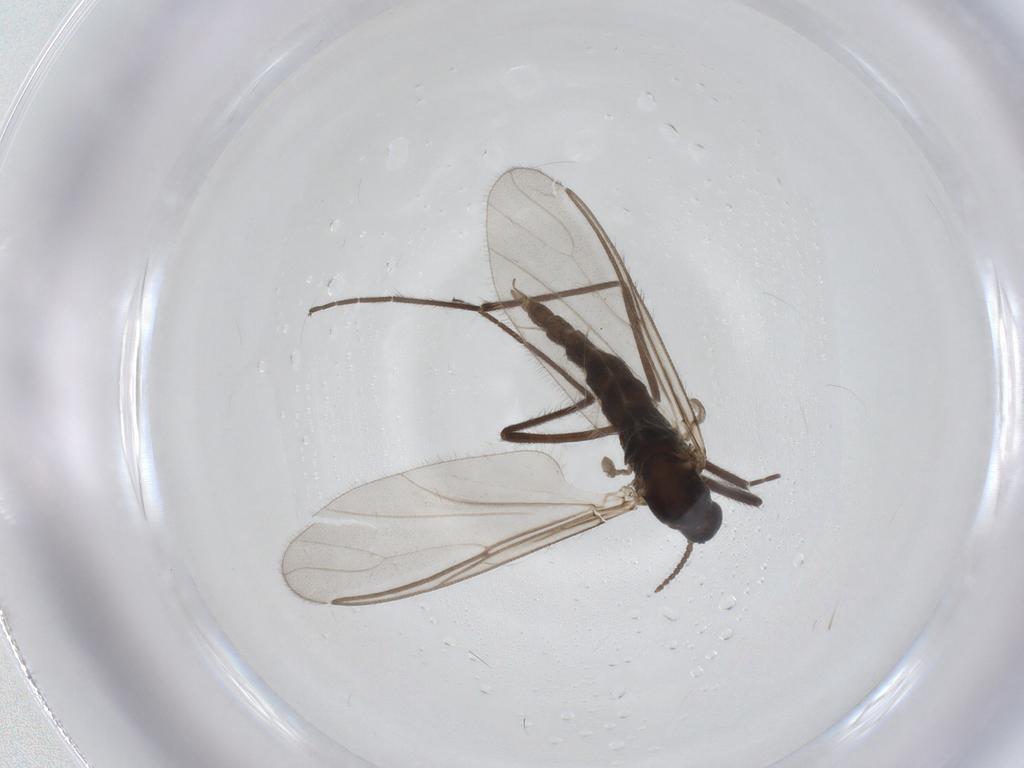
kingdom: Animalia
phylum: Arthropoda
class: Insecta
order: Diptera
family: Cecidomyiidae
